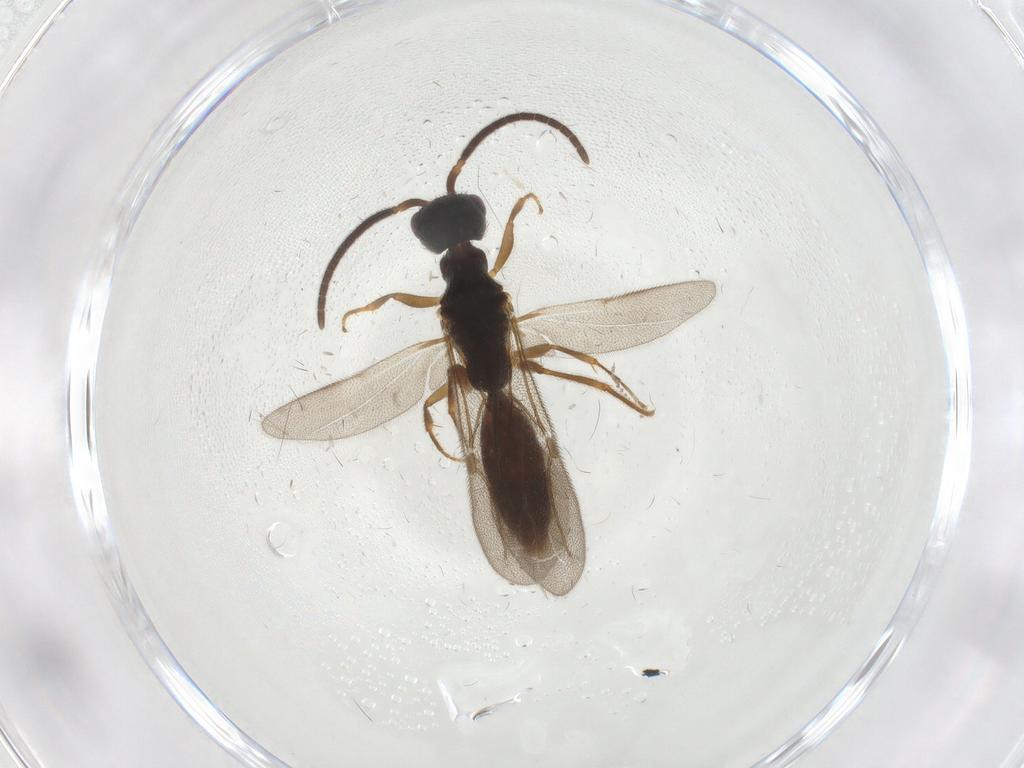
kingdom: Animalia
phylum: Arthropoda
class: Insecta
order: Hymenoptera
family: Bethylidae
